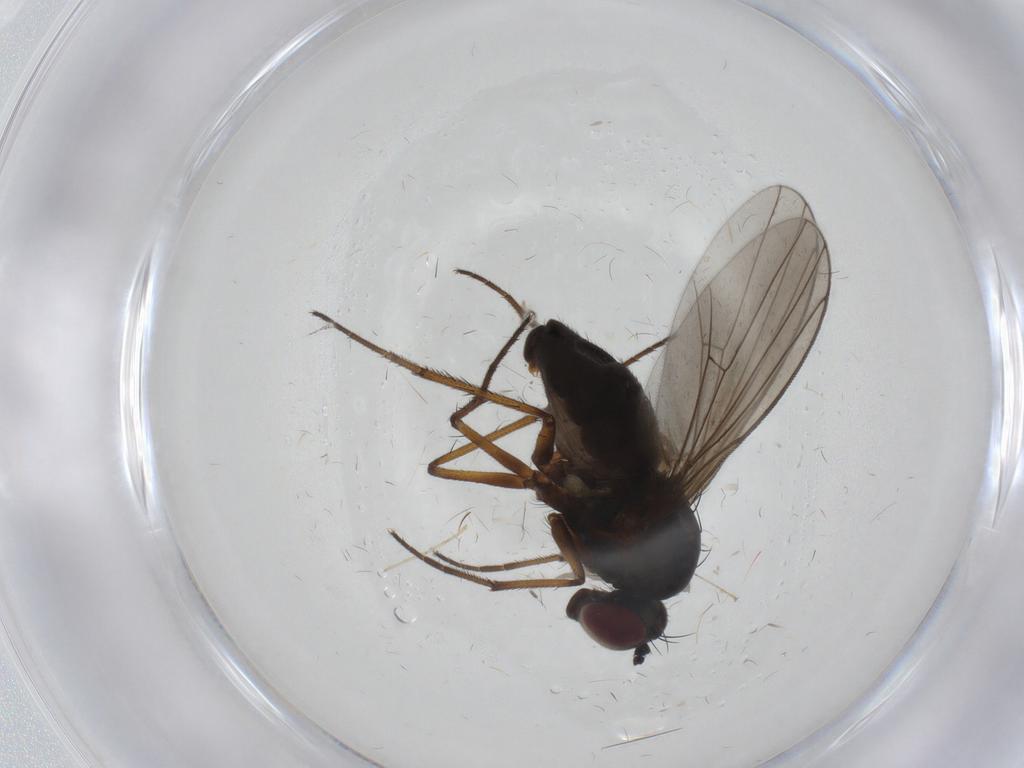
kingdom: Animalia
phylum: Arthropoda
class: Insecta
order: Diptera
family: Dolichopodidae
